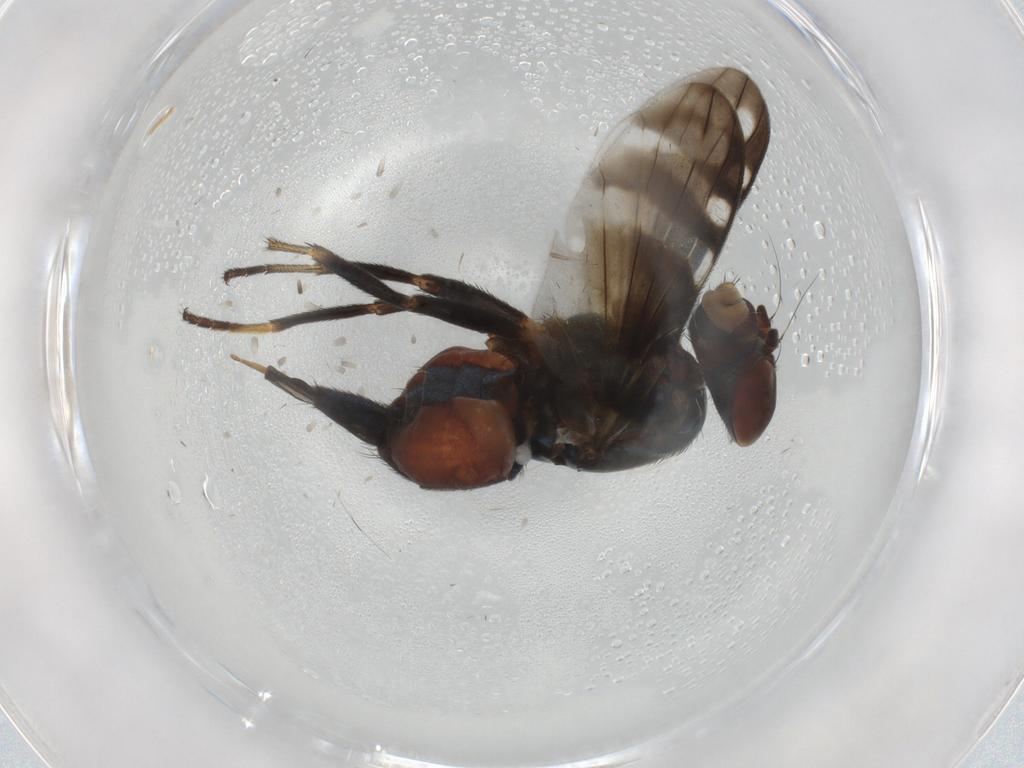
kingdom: Animalia
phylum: Arthropoda
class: Insecta
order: Diptera
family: Ulidiidae
